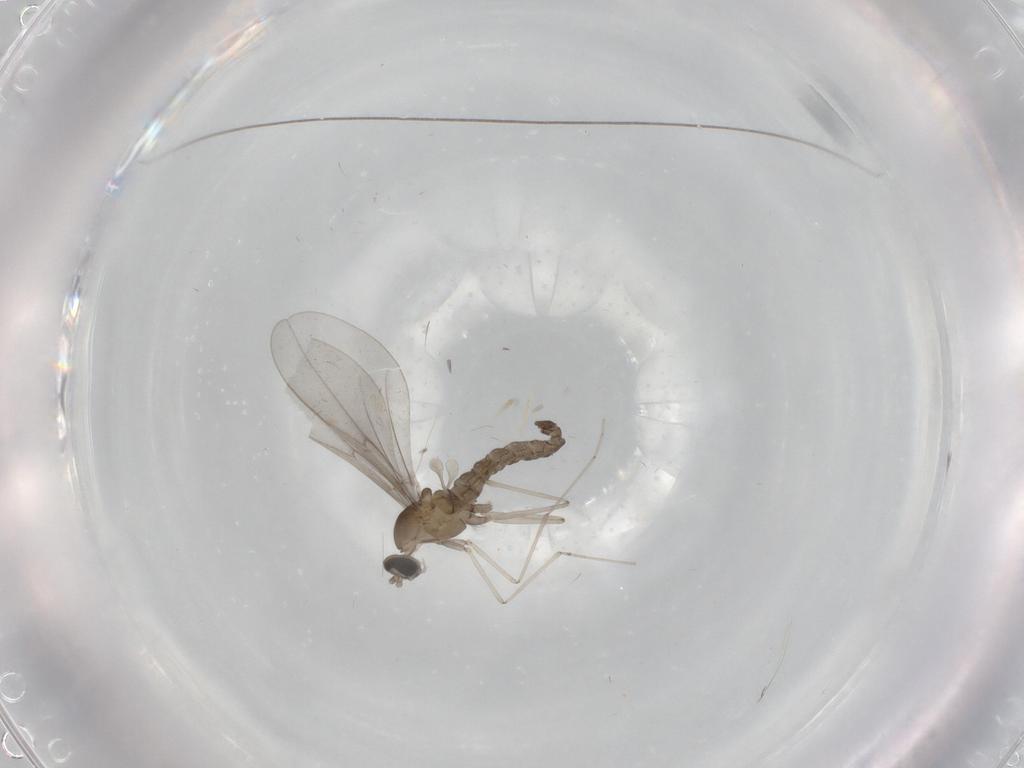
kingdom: Animalia
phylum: Arthropoda
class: Insecta
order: Diptera
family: Cecidomyiidae
